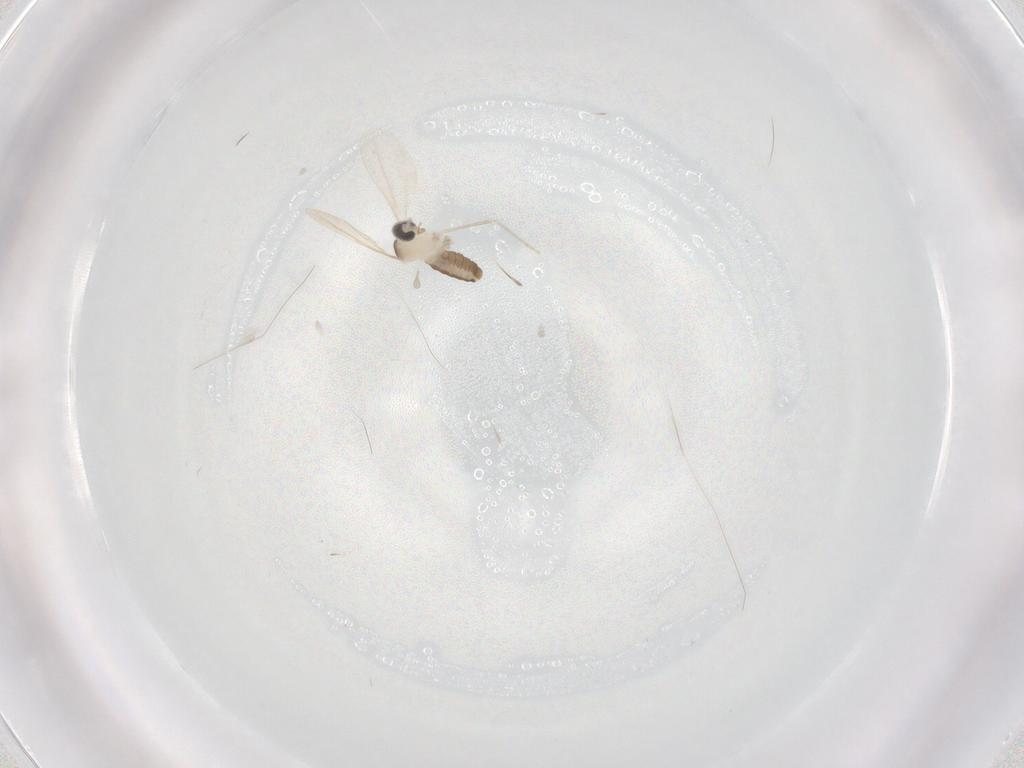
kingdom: Animalia
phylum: Arthropoda
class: Insecta
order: Diptera
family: Cecidomyiidae
